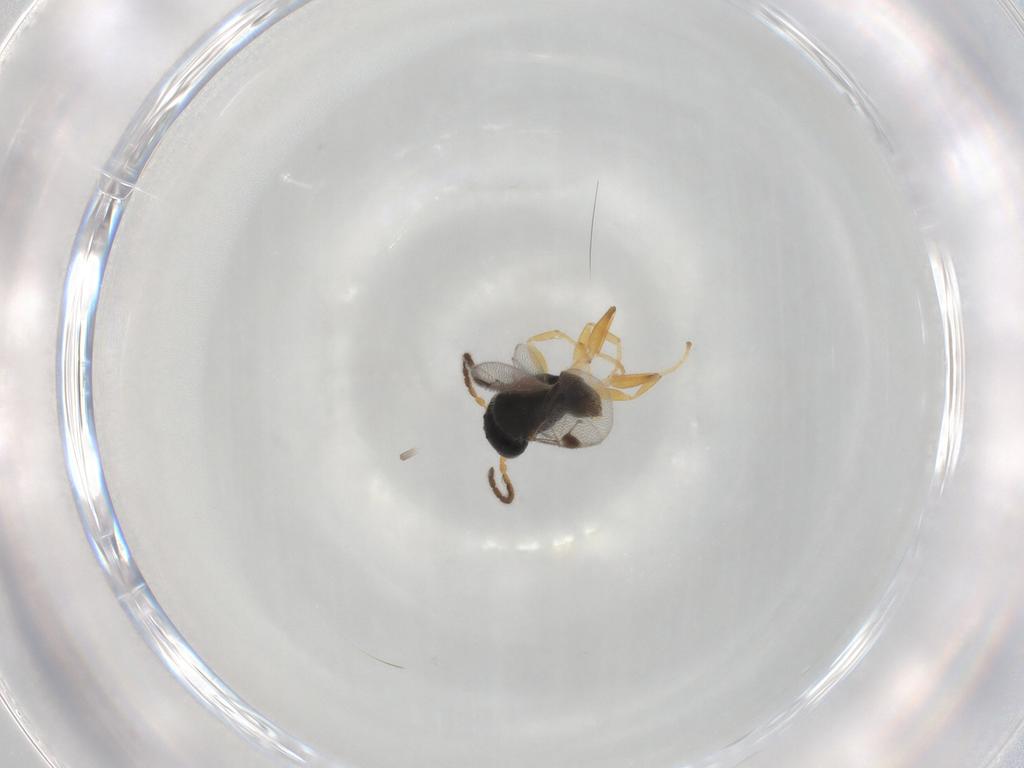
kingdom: Animalia
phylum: Arthropoda
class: Insecta
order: Hymenoptera
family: Dryinidae
